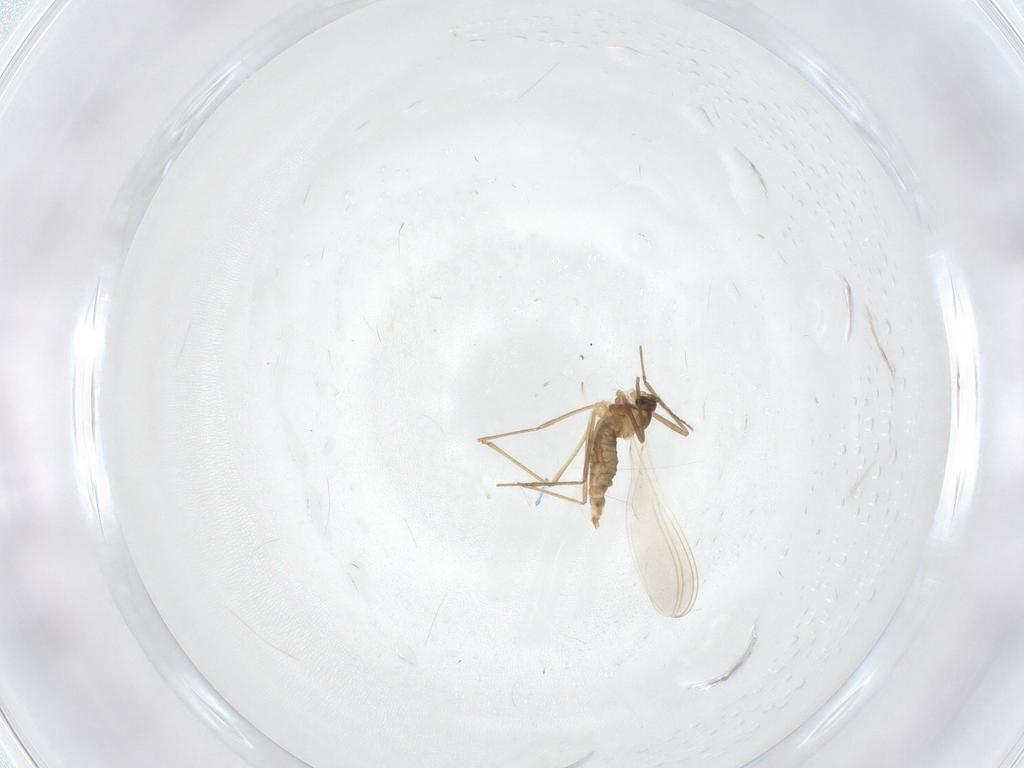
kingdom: Animalia
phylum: Arthropoda
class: Insecta
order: Diptera
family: Cecidomyiidae
